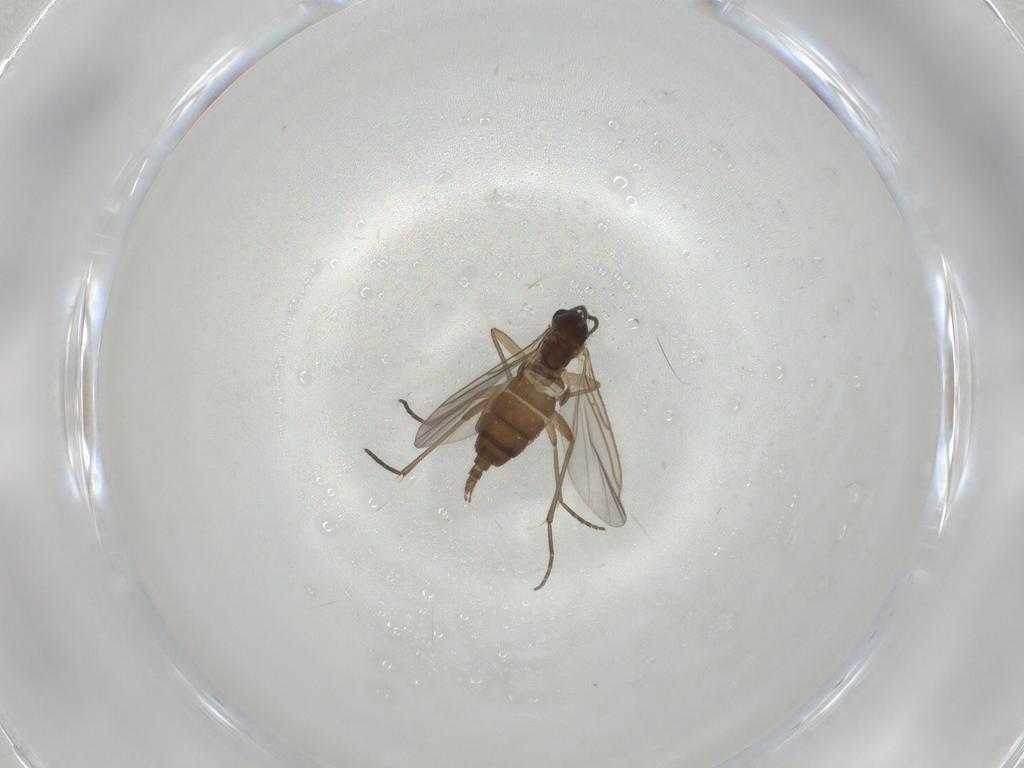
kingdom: Animalia
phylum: Arthropoda
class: Insecta
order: Diptera
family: Sciaridae
